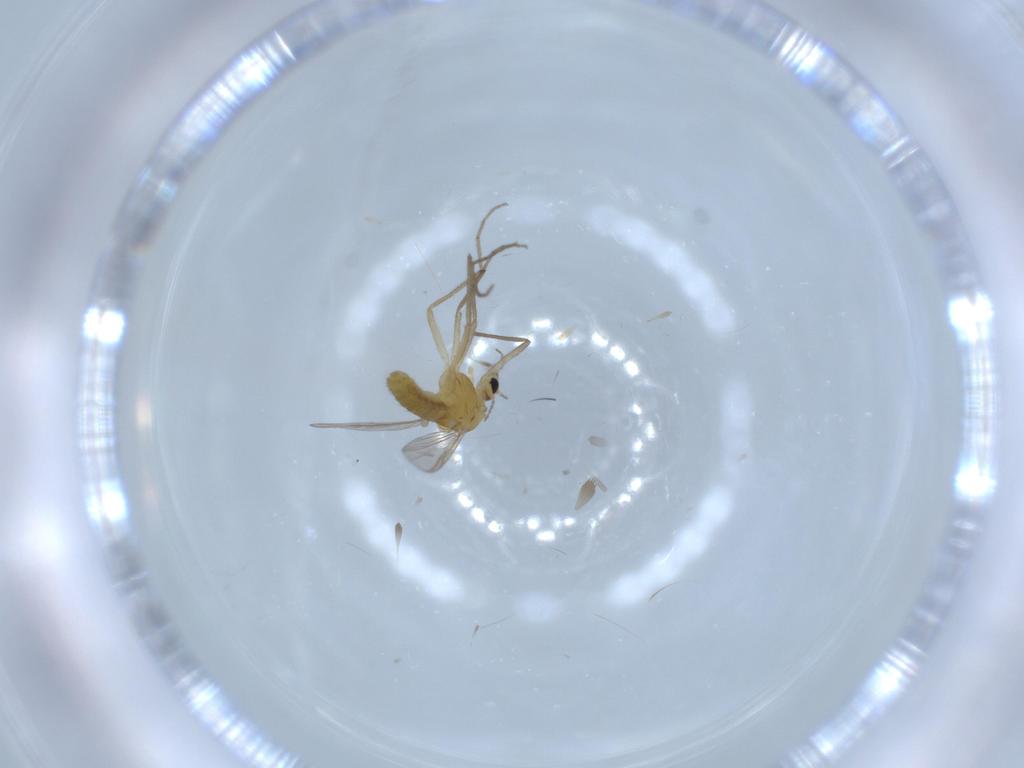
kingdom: Animalia
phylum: Arthropoda
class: Insecta
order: Diptera
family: Chironomidae
